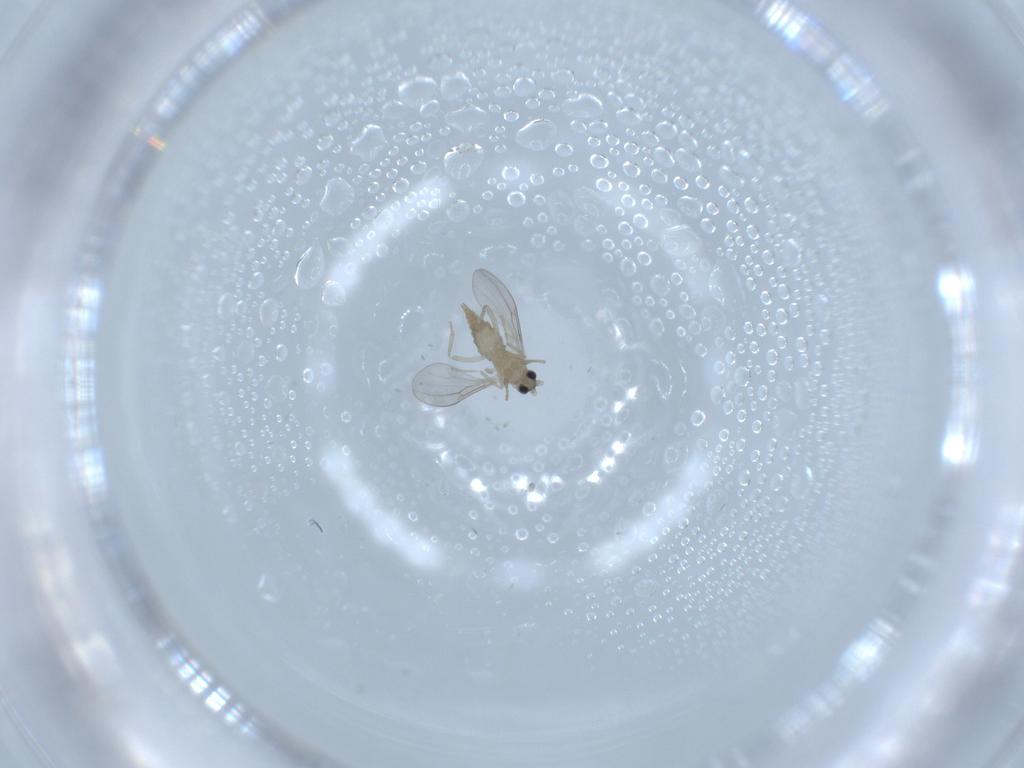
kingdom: Animalia
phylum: Arthropoda
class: Insecta
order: Diptera
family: Cecidomyiidae
